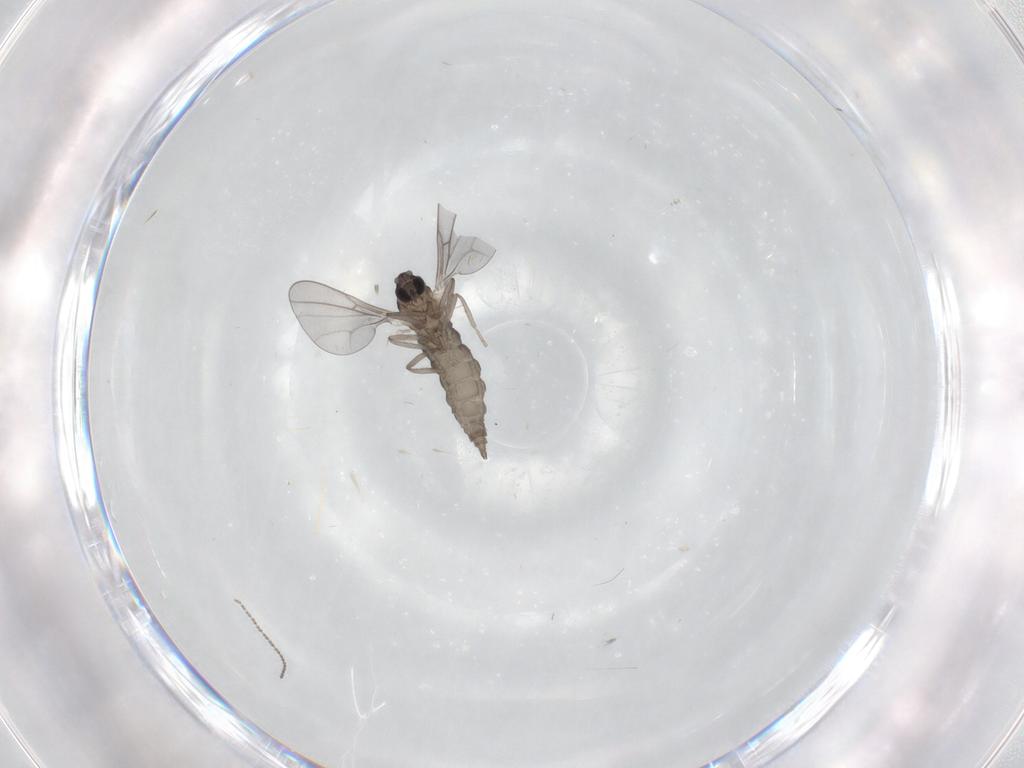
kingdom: Animalia
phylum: Arthropoda
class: Insecta
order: Diptera
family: Cecidomyiidae
